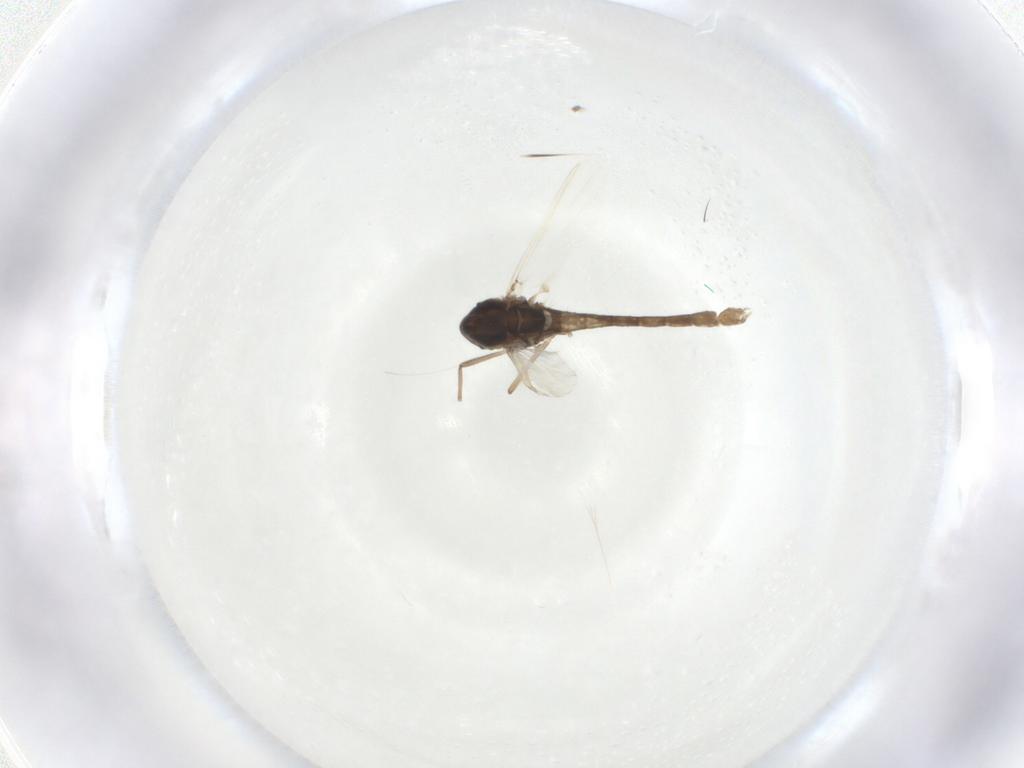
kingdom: Animalia
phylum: Arthropoda
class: Insecta
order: Diptera
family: Chironomidae
